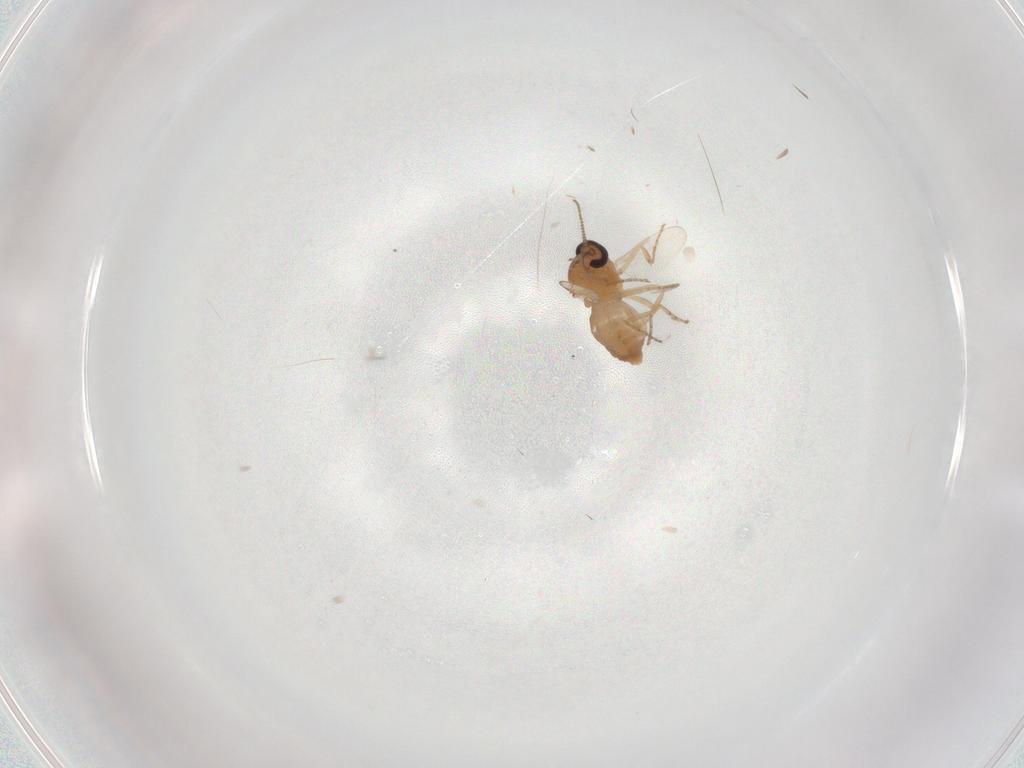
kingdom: Animalia
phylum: Arthropoda
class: Insecta
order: Diptera
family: Ceratopogonidae
